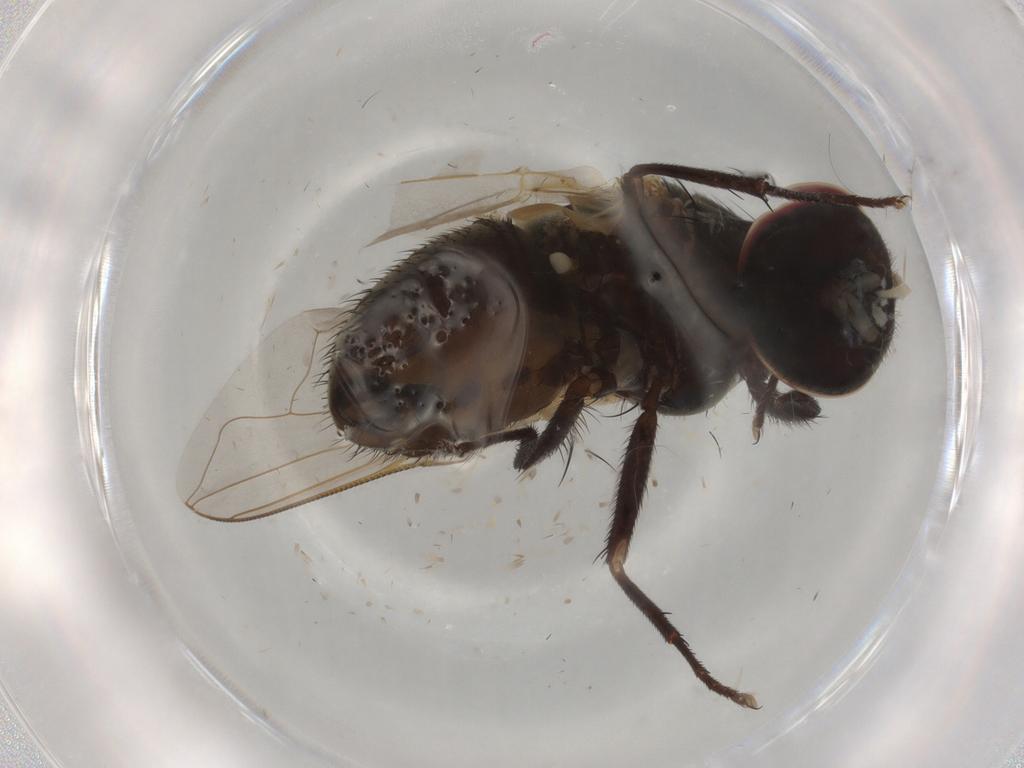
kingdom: Animalia
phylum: Arthropoda
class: Insecta
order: Diptera
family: Muscidae
